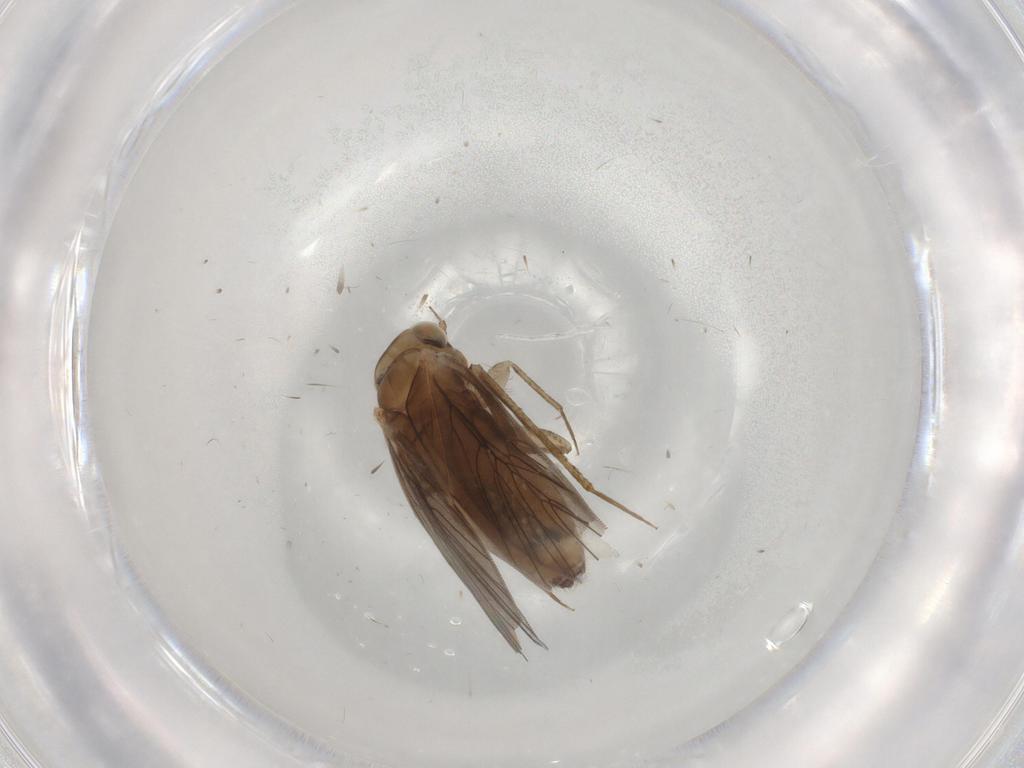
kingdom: Animalia
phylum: Arthropoda
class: Insecta
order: Psocodea
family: Lepidopsocidae
